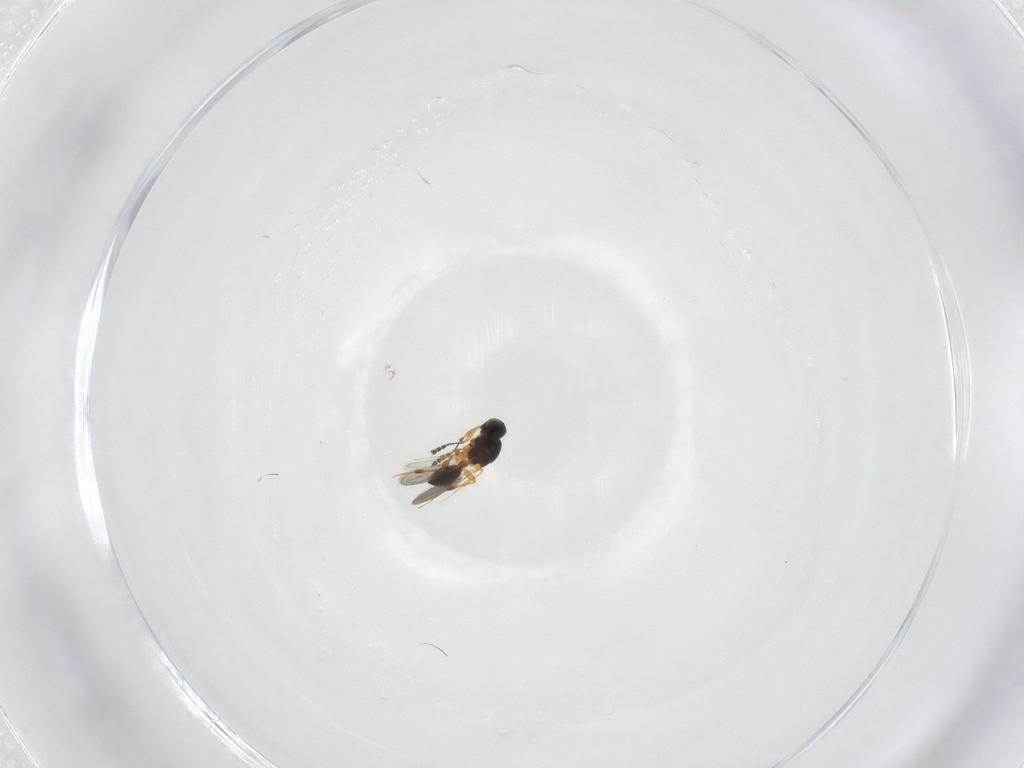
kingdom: Animalia
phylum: Arthropoda
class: Insecta
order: Hymenoptera
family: Platygastridae
